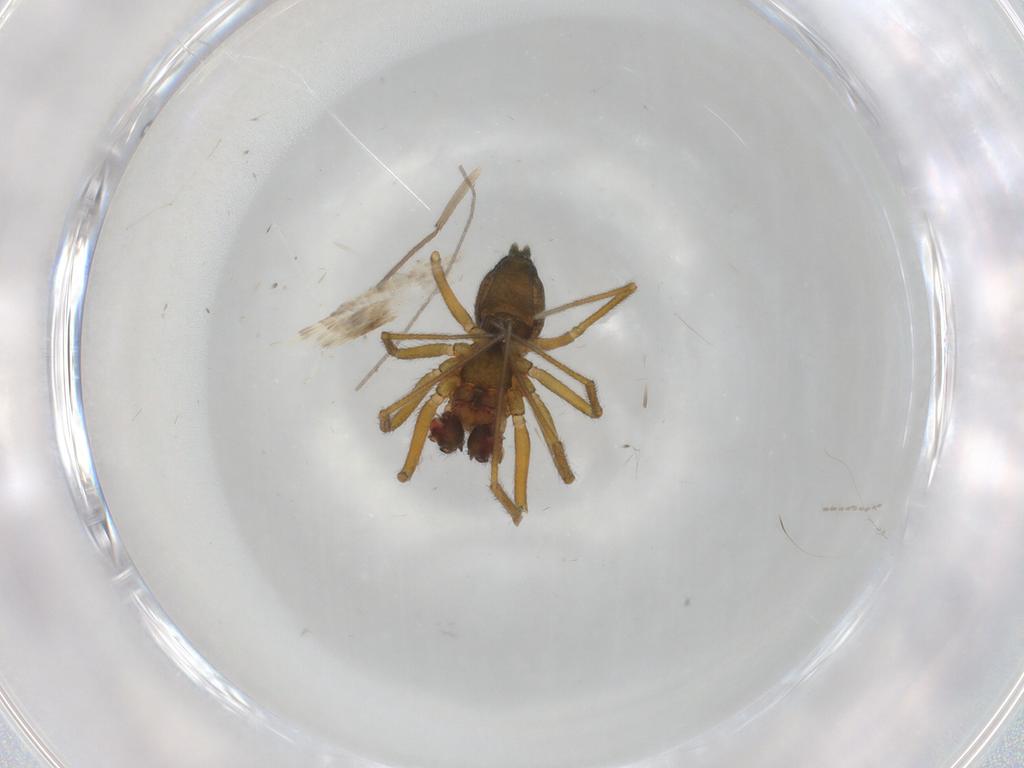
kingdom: Animalia
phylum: Arthropoda
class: Arachnida
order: Araneae
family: Linyphiidae
